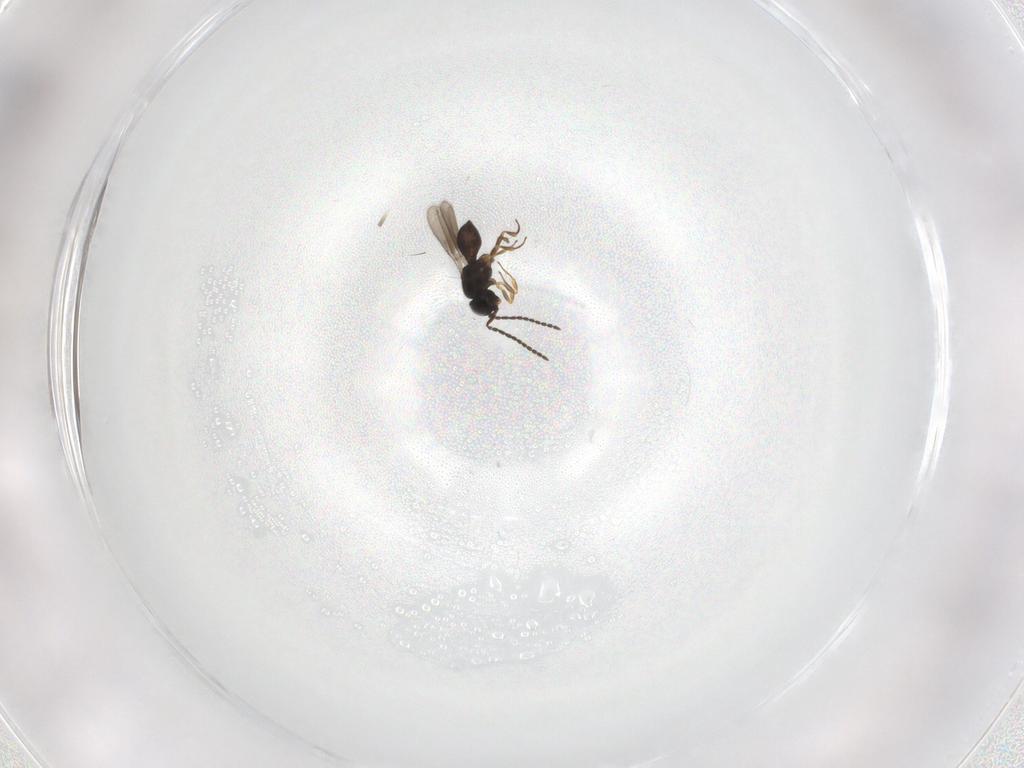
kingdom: Animalia
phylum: Arthropoda
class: Insecta
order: Hymenoptera
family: Scelionidae
